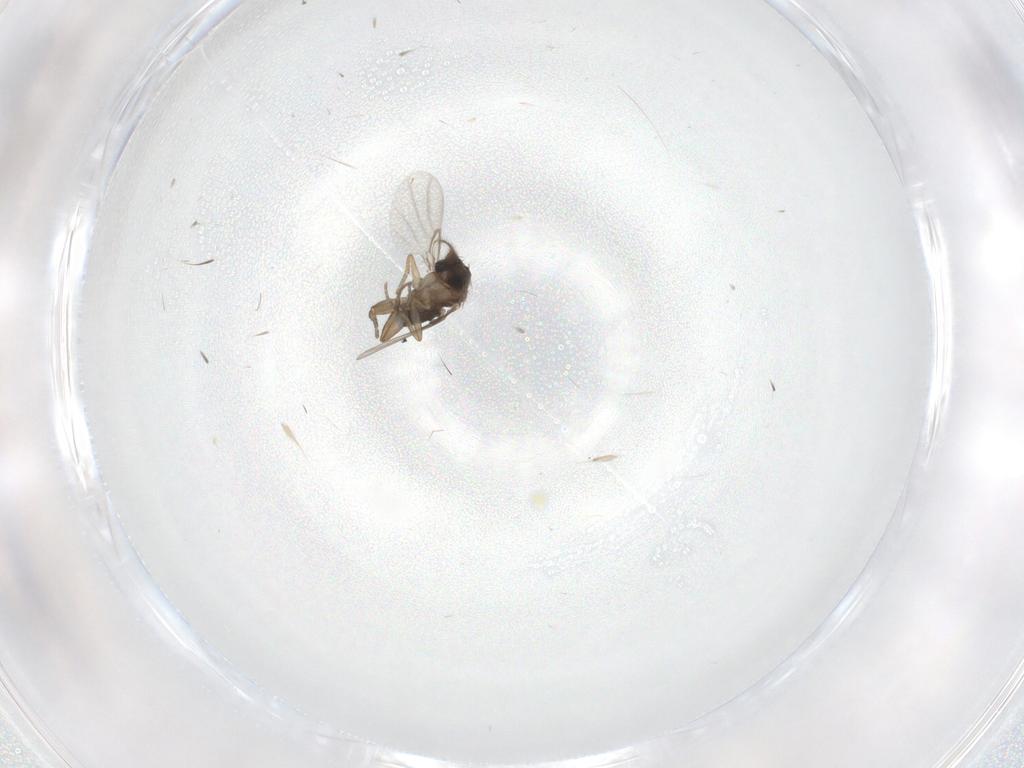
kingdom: Animalia
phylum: Arthropoda
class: Insecta
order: Diptera
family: Phoridae
